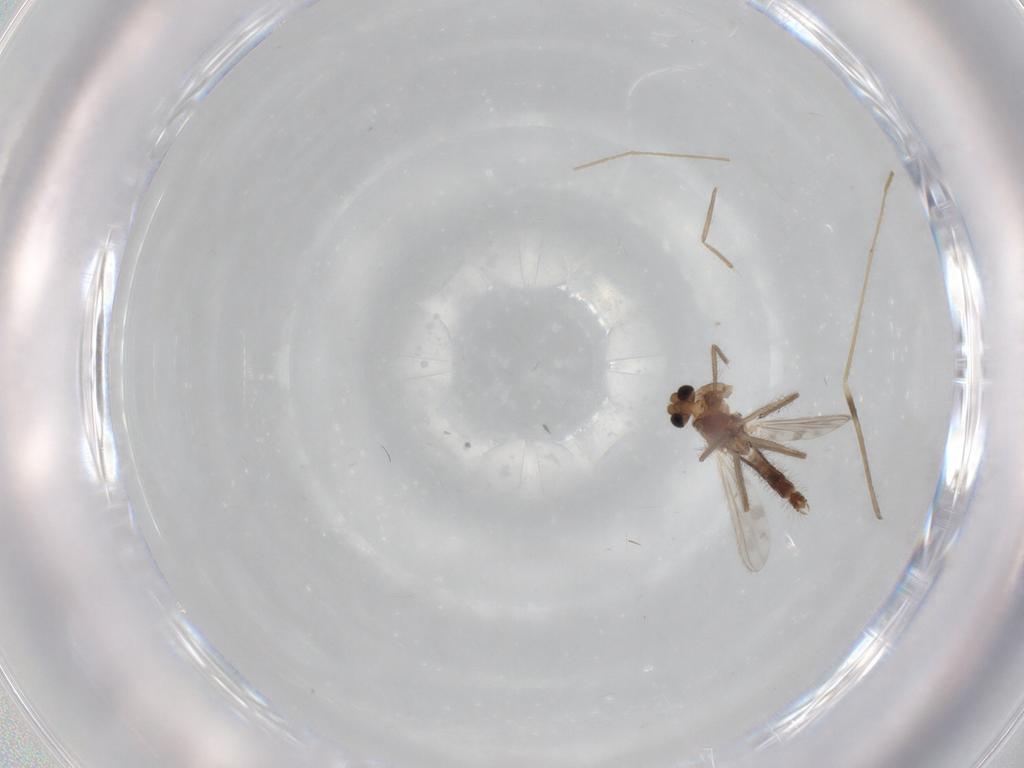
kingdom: Animalia
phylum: Arthropoda
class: Insecta
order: Diptera
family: Chironomidae
